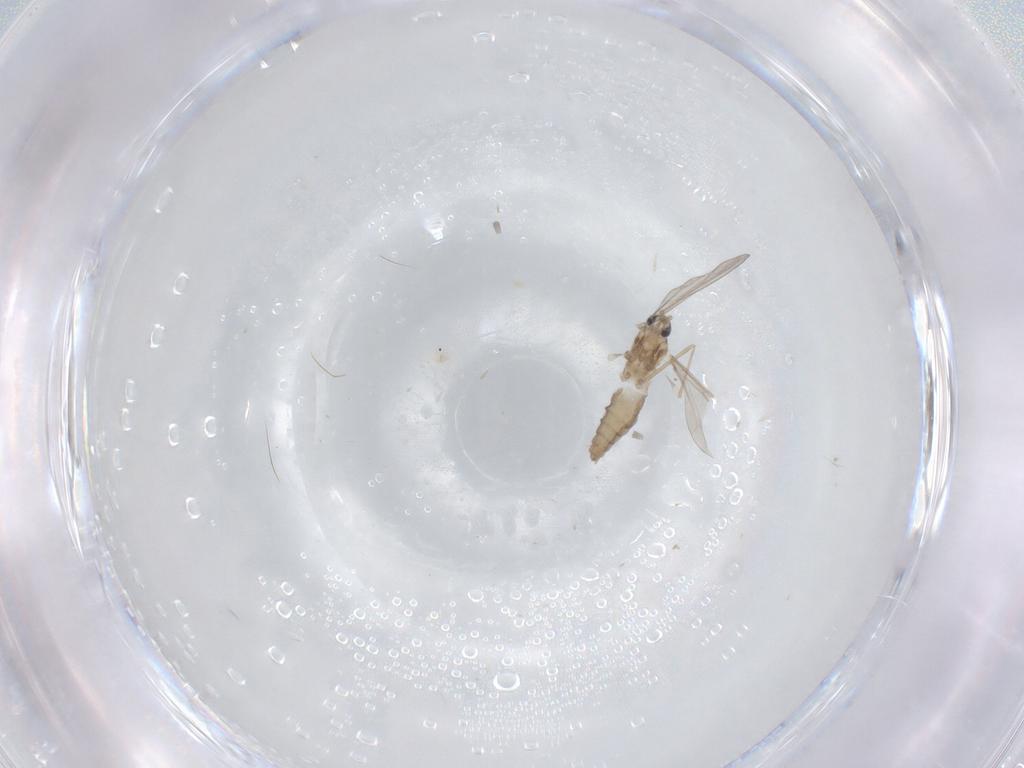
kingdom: Animalia
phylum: Arthropoda
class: Insecta
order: Diptera
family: Cecidomyiidae
